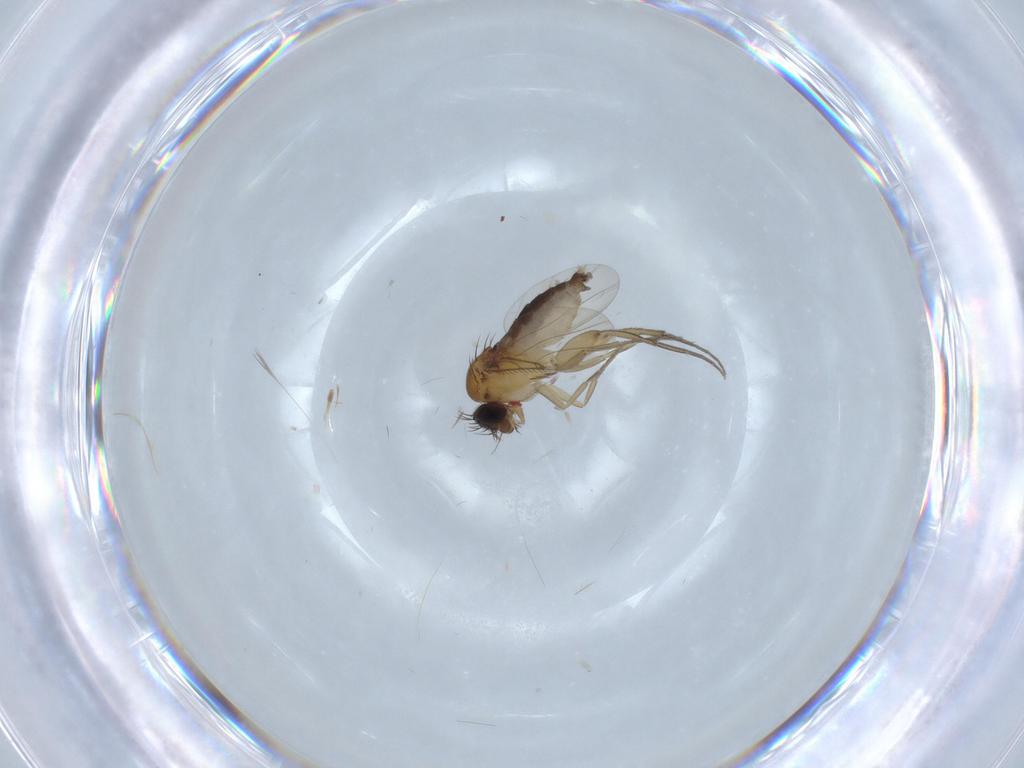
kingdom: Animalia
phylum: Arthropoda
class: Insecta
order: Diptera
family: Phoridae
